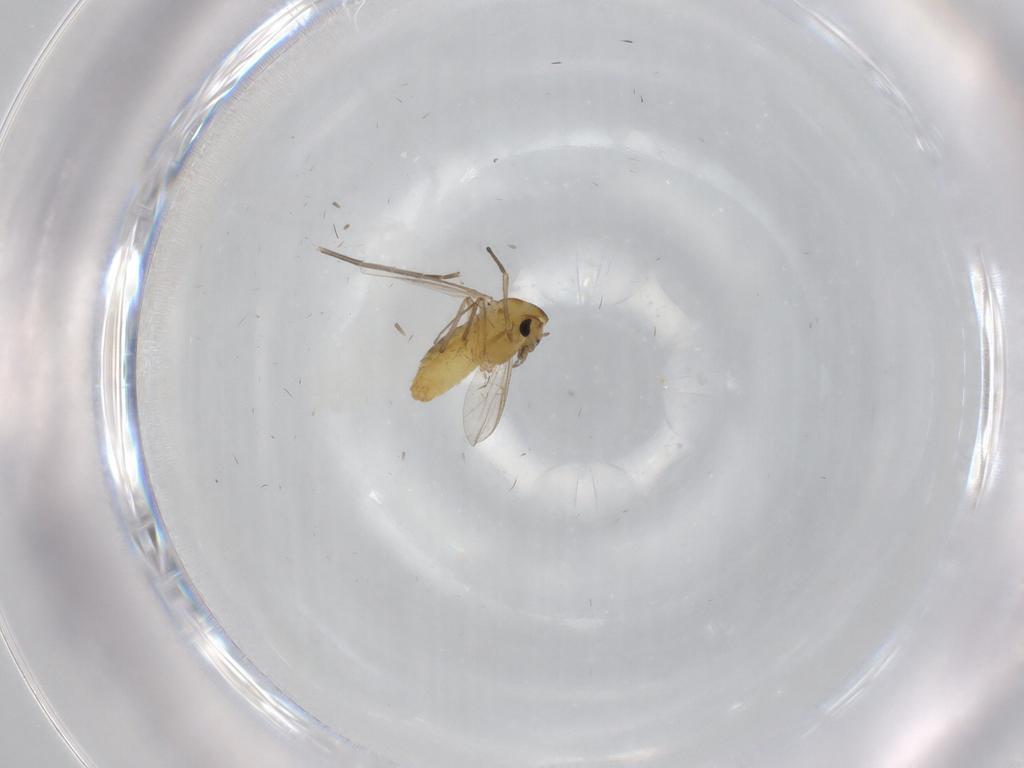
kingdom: Animalia
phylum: Arthropoda
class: Insecta
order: Diptera
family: Chironomidae
